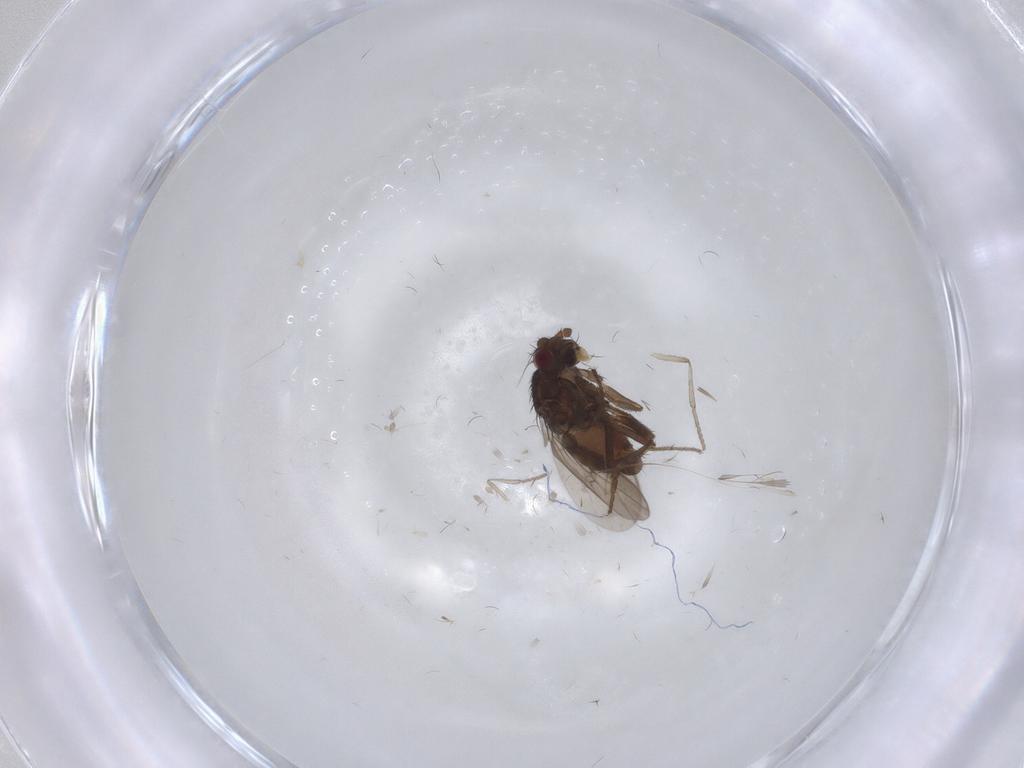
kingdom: Animalia
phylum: Arthropoda
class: Insecta
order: Diptera
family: Sphaeroceridae
